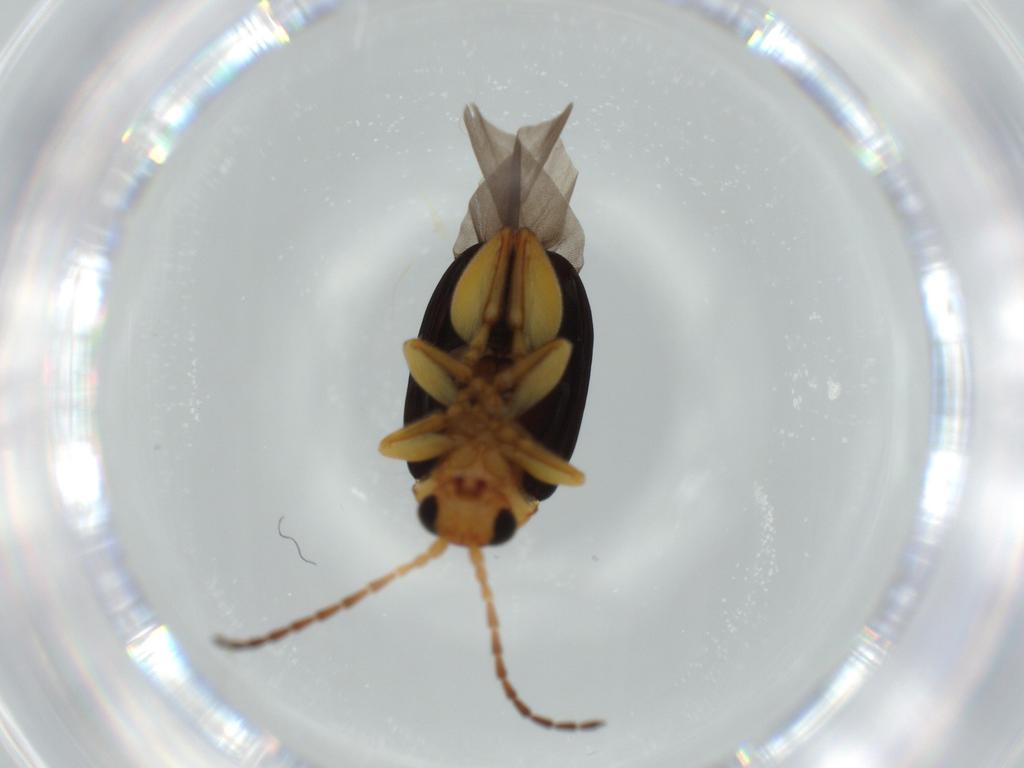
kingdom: Animalia
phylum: Arthropoda
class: Insecta
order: Coleoptera
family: Chrysomelidae
